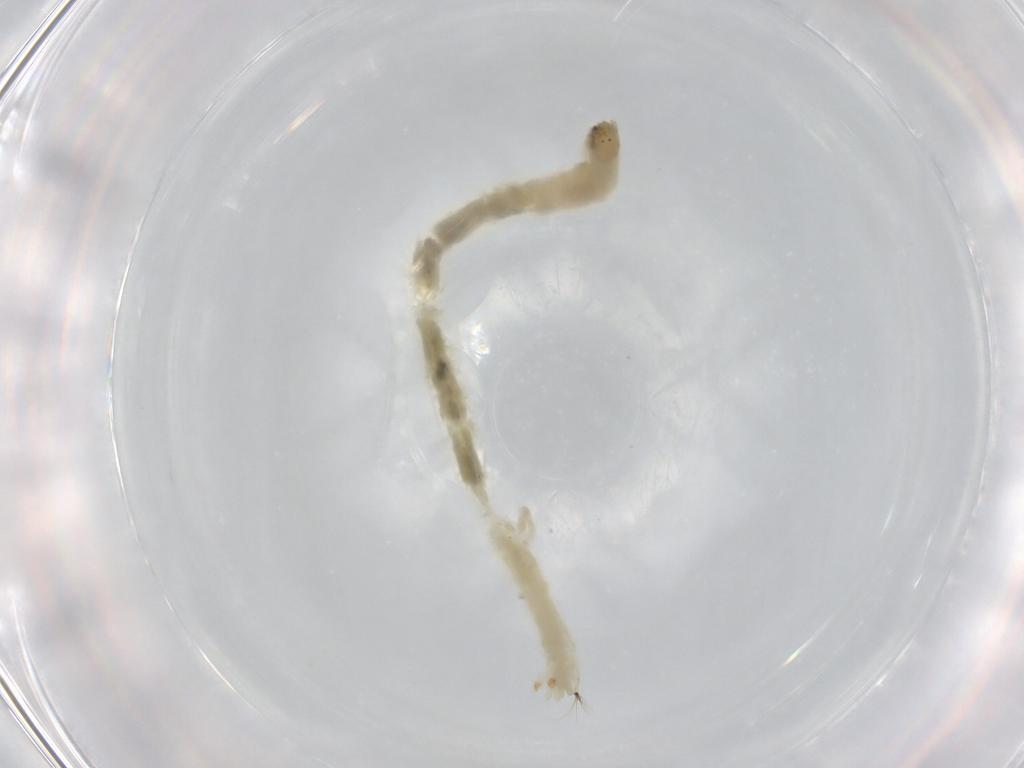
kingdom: Animalia
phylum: Arthropoda
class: Insecta
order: Diptera
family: Chironomidae
